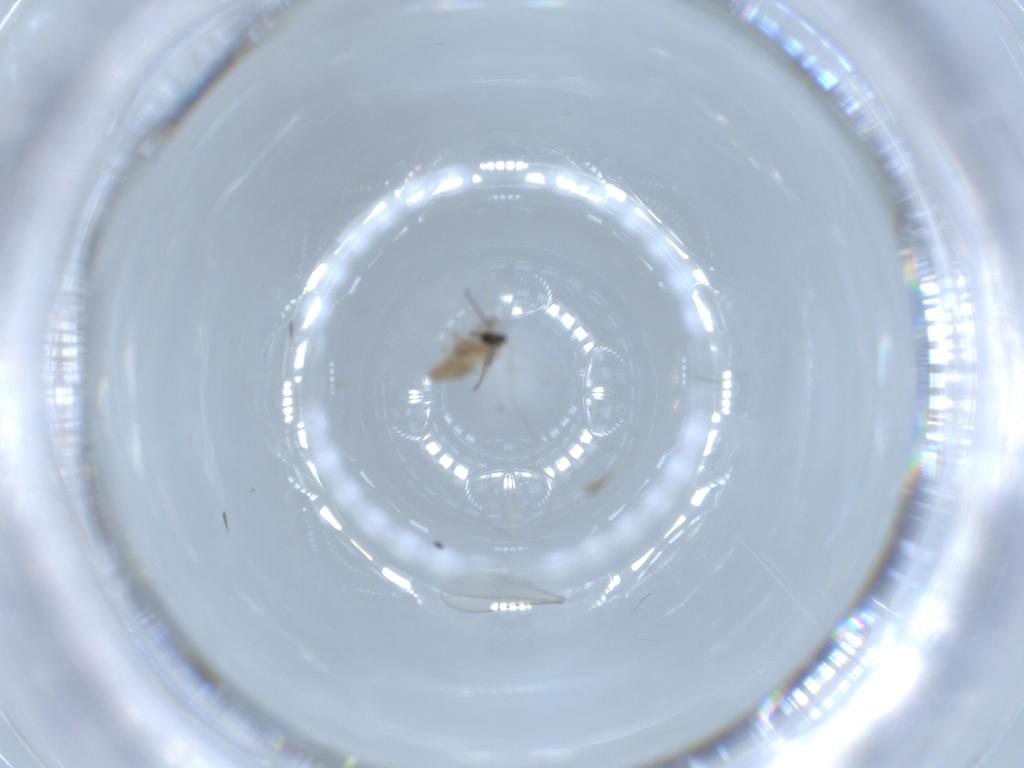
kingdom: Animalia
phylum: Arthropoda
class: Insecta
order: Diptera
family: Cecidomyiidae
